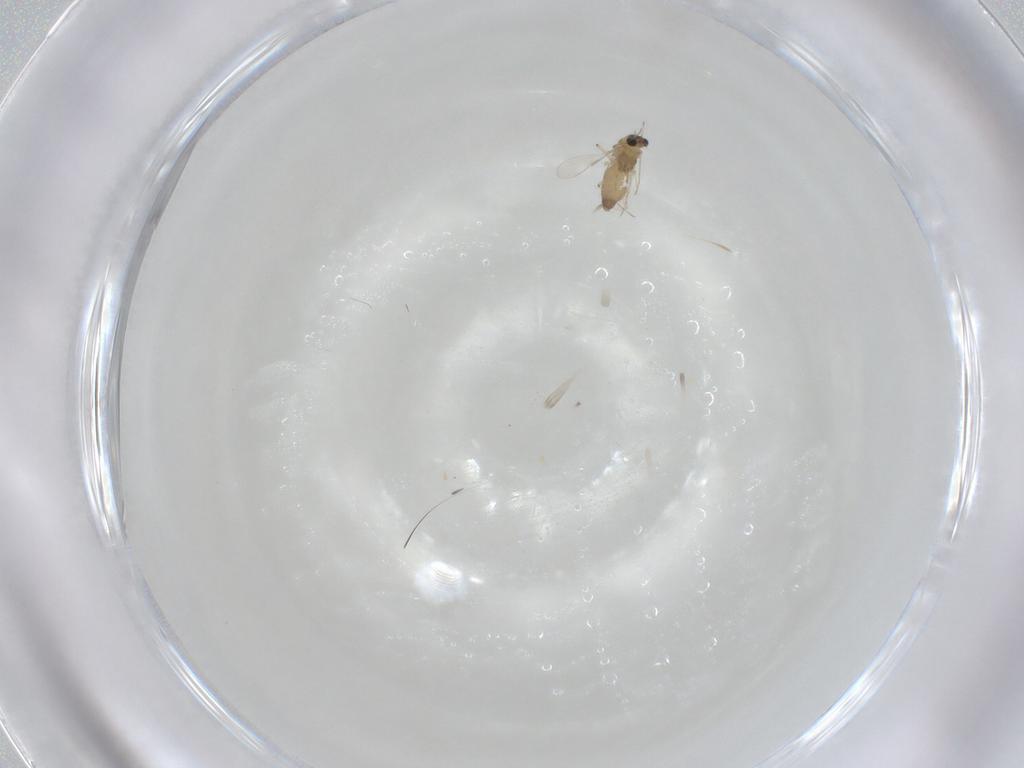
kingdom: Animalia
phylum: Arthropoda
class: Insecta
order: Diptera
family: Chironomidae
